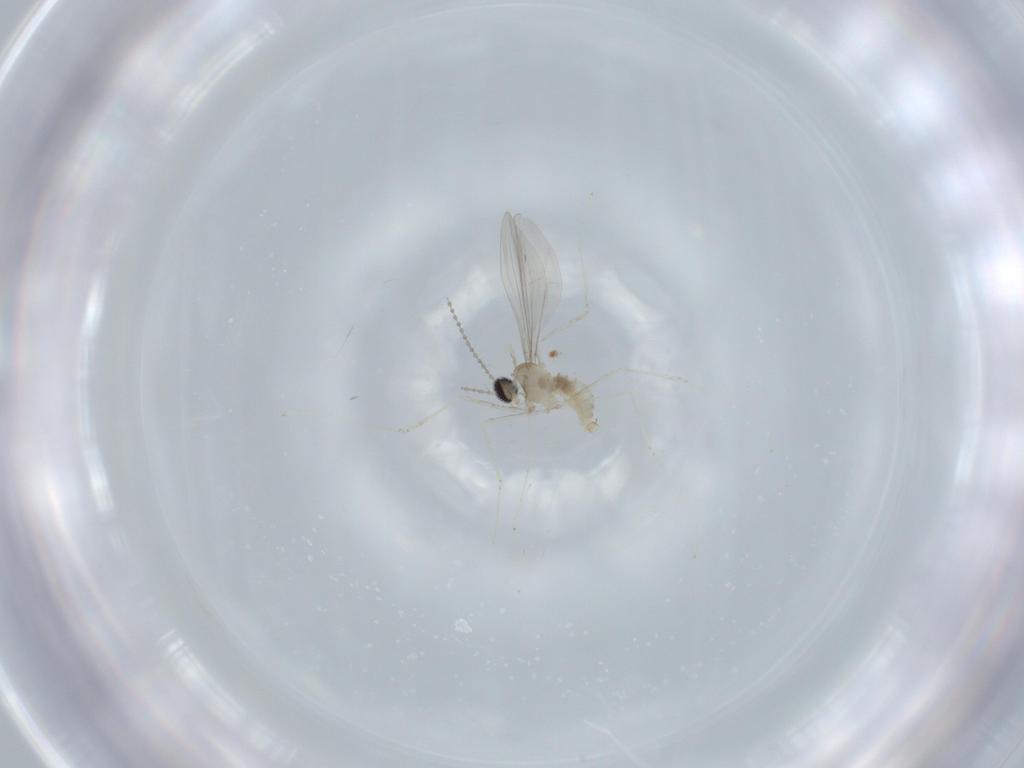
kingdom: Animalia
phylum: Arthropoda
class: Insecta
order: Diptera
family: Cecidomyiidae
